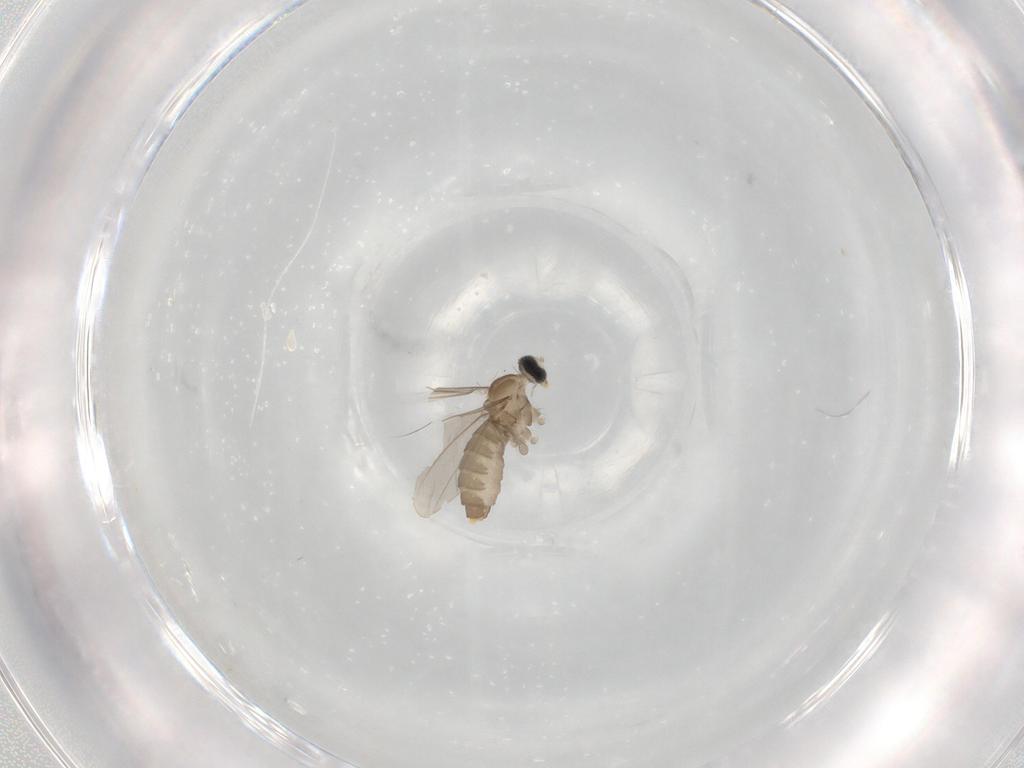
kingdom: Animalia
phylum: Arthropoda
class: Insecta
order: Diptera
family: Cecidomyiidae
